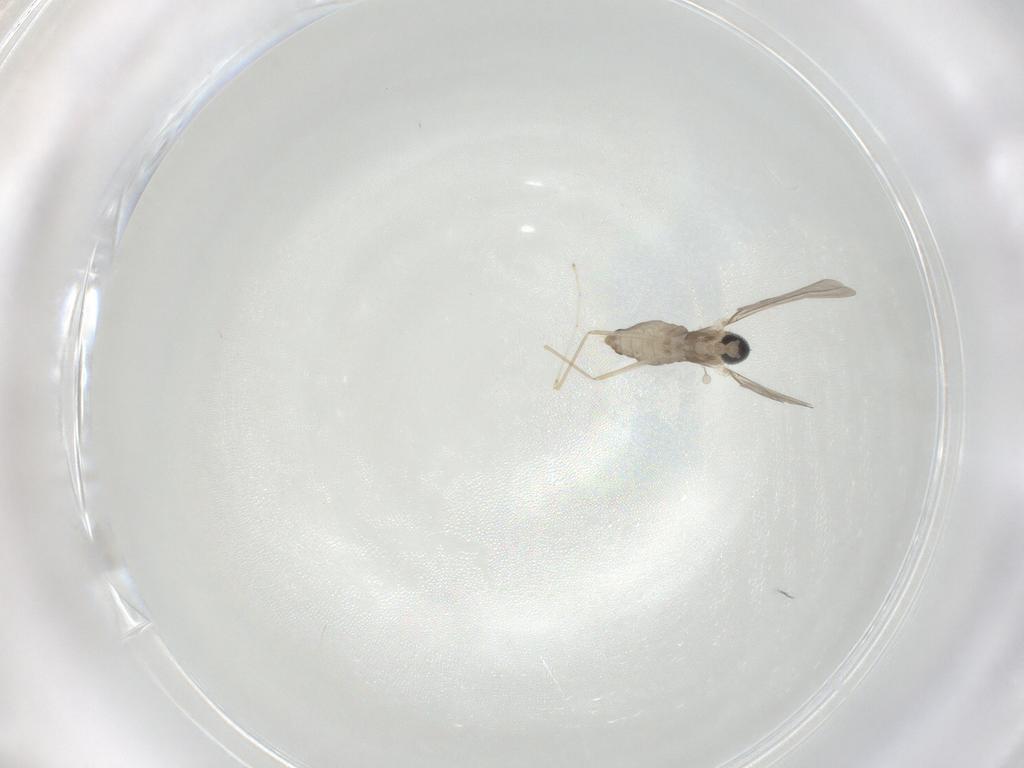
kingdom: Animalia
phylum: Arthropoda
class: Insecta
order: Diptera
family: Cecidomyiidae
